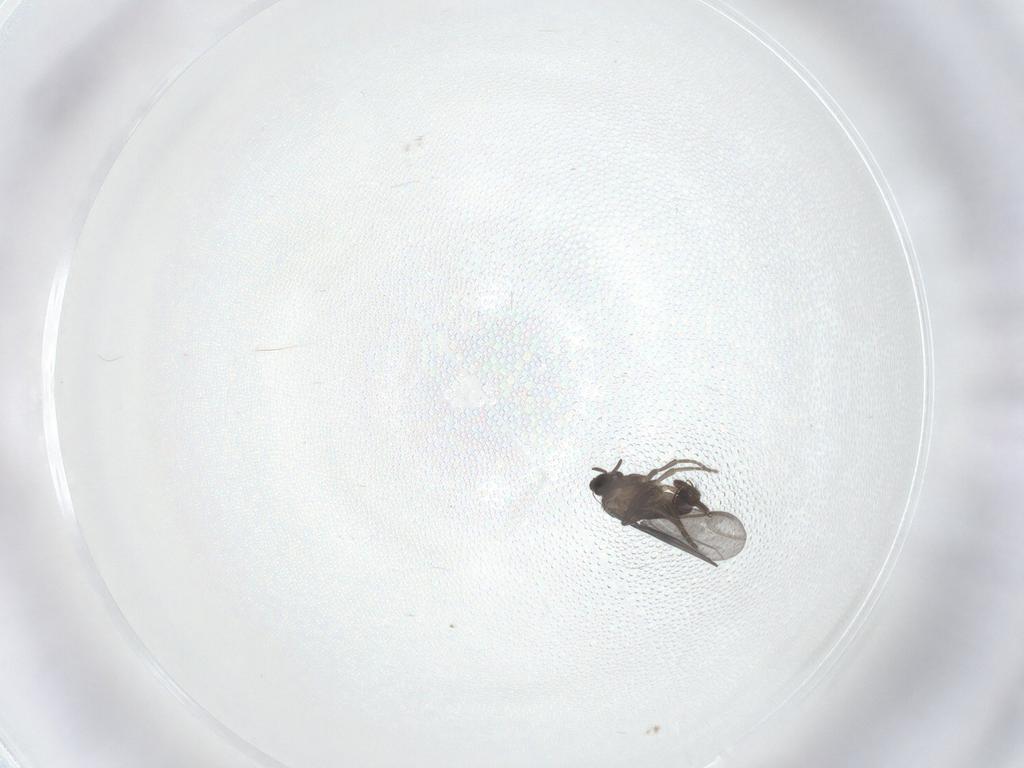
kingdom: Animalia
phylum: Arthropoda
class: Insecta
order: Diptera
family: Phoridae
